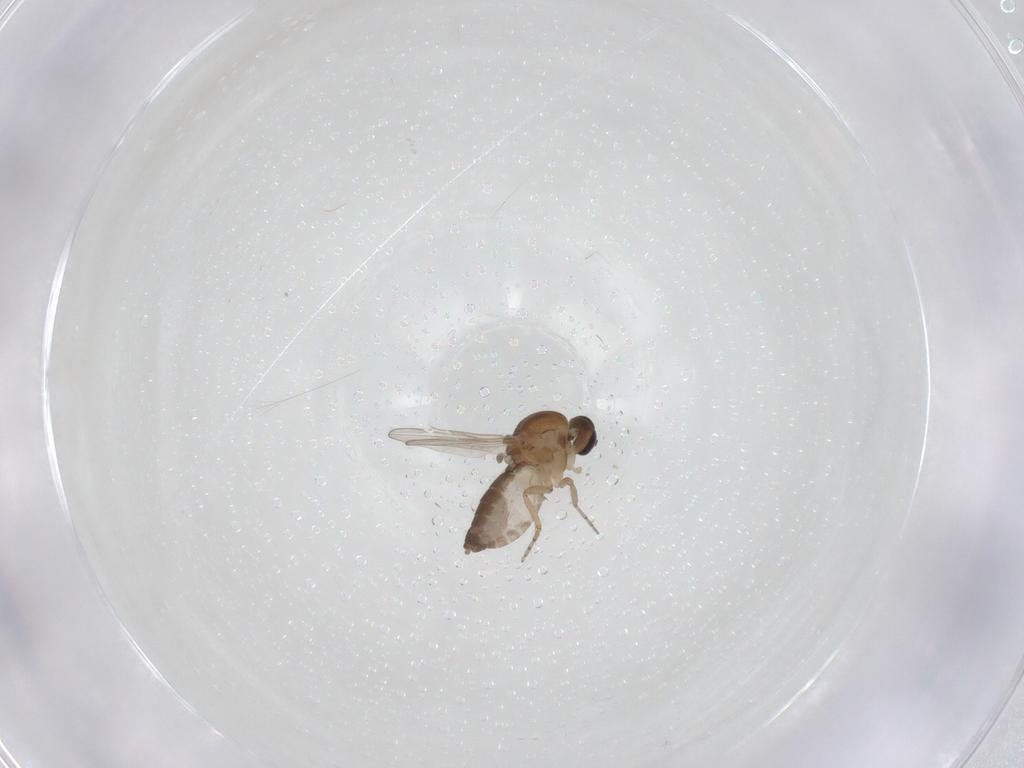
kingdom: Animalia
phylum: Arthropoda
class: Insecta
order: Diptera
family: Ceratopogonidae
